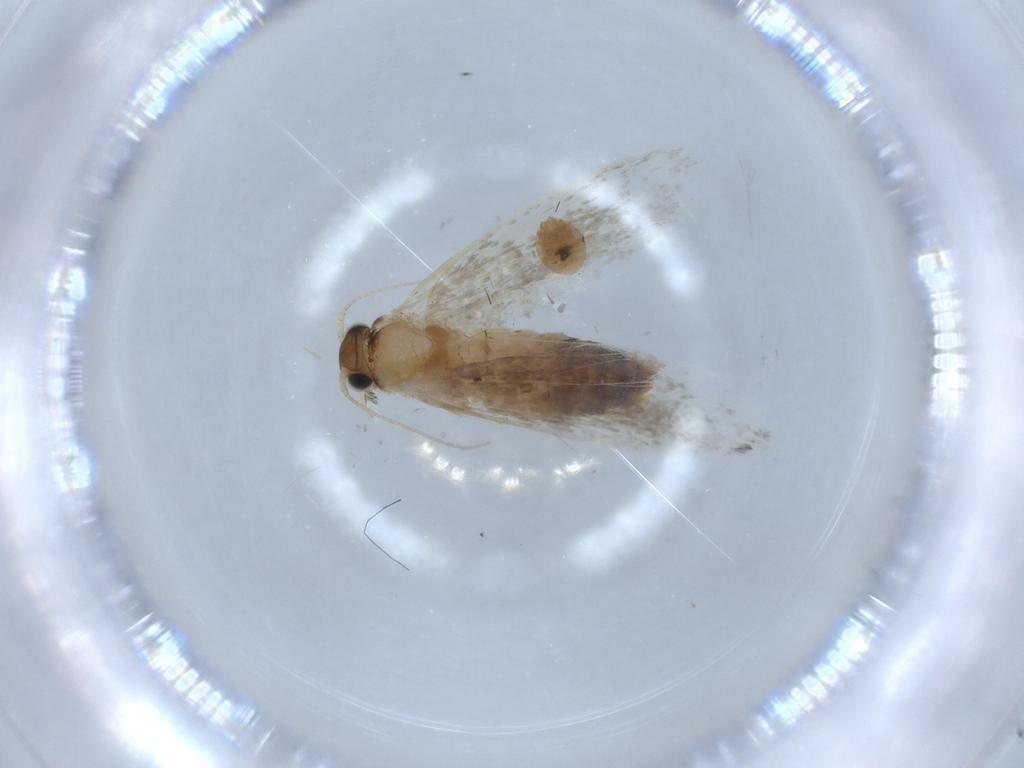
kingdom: Animalia
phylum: Arthropoda
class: Insecta
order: Lepidoptera
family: Tineidae
